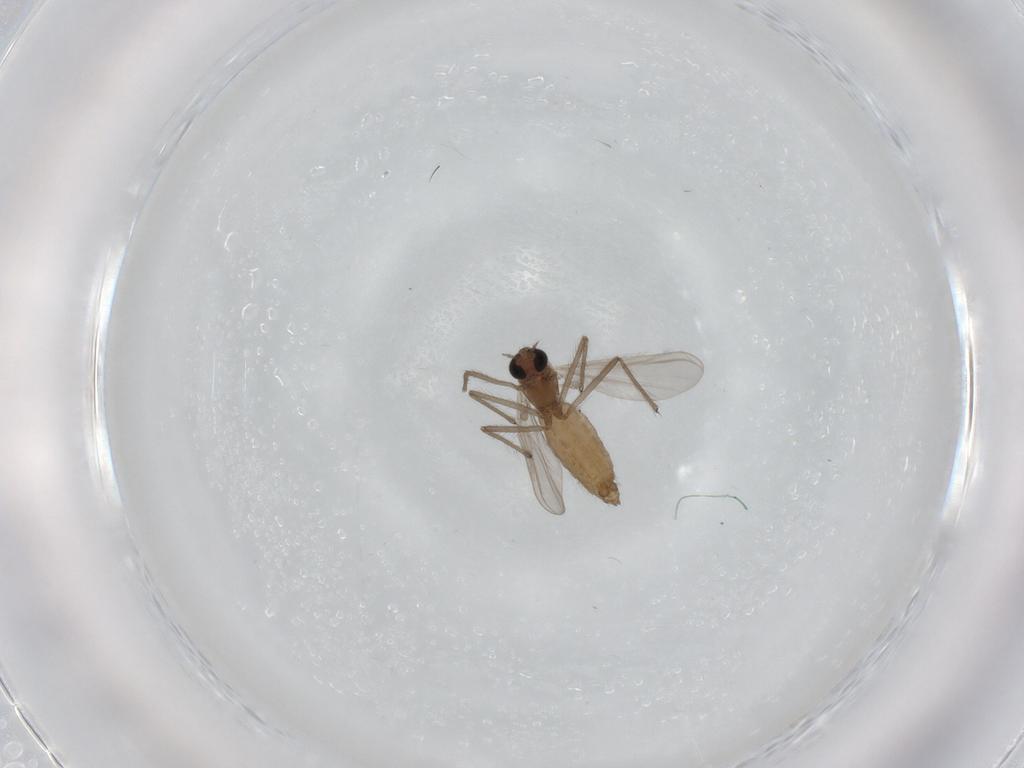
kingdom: Animalia
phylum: Arthropoda
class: Insecta
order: Diptera
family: Chironomidae
